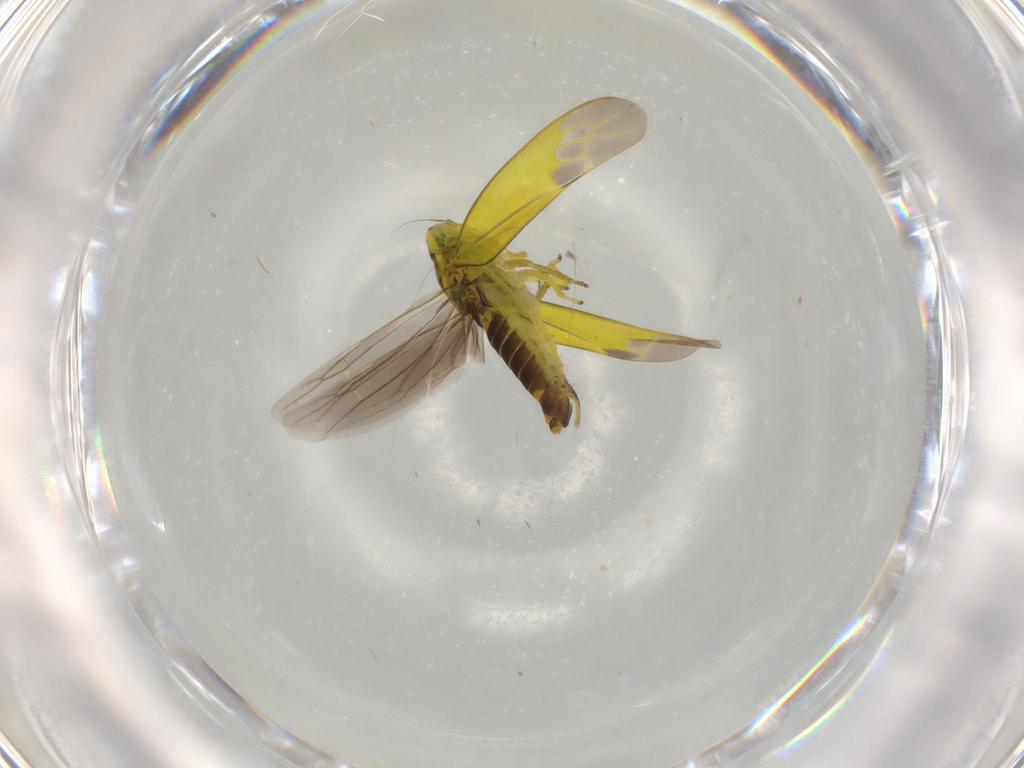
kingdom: Animalia
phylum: Arthropoda
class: Insecta
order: Hemiptera
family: Cicadellidae
